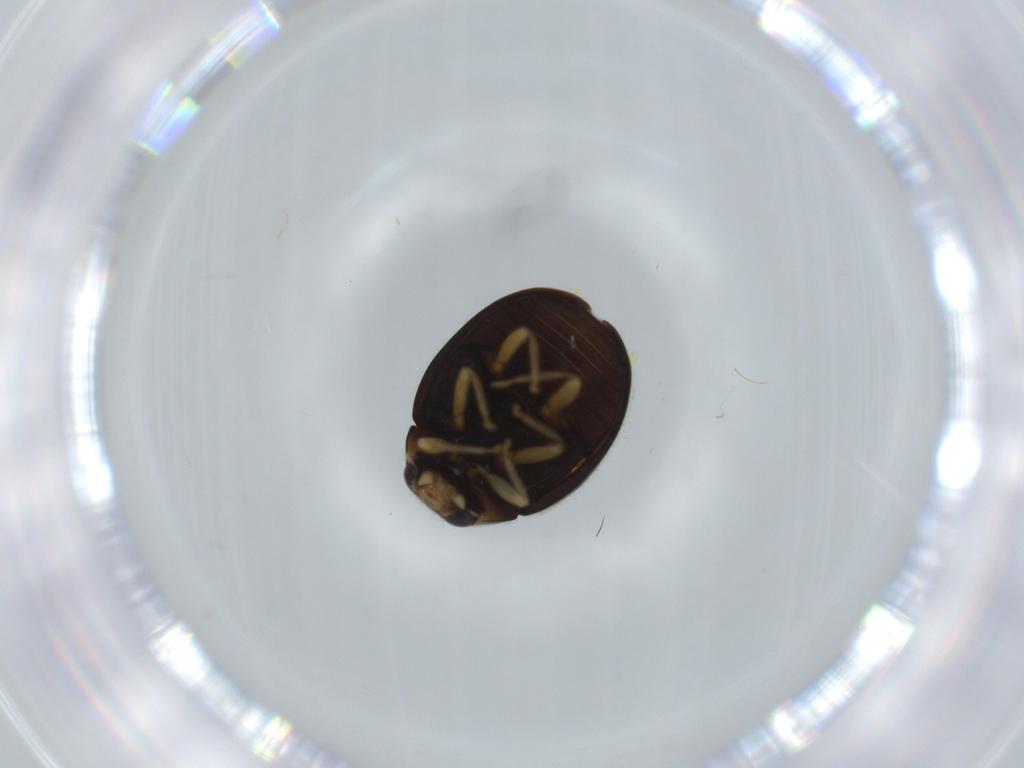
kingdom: Animalia
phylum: Arthropoda
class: Insecta
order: Coleoptera
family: Coccinellidae
